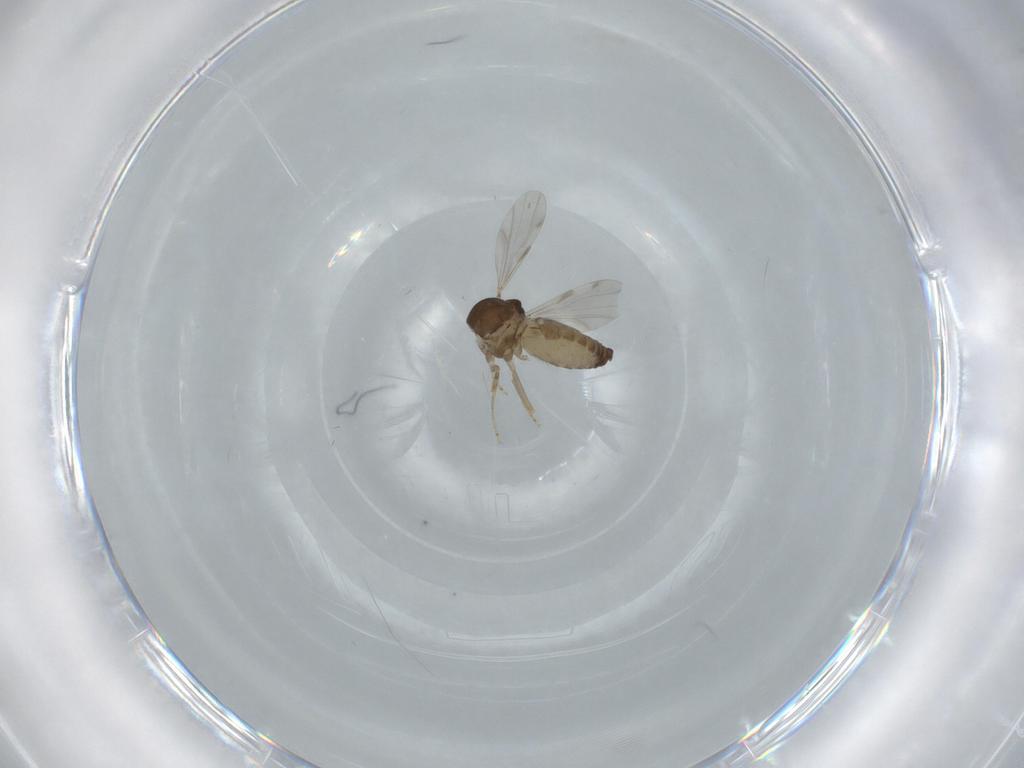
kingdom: Animalia
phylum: Arthropoda
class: Insecta
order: Diptera
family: Ceratopogonidae
